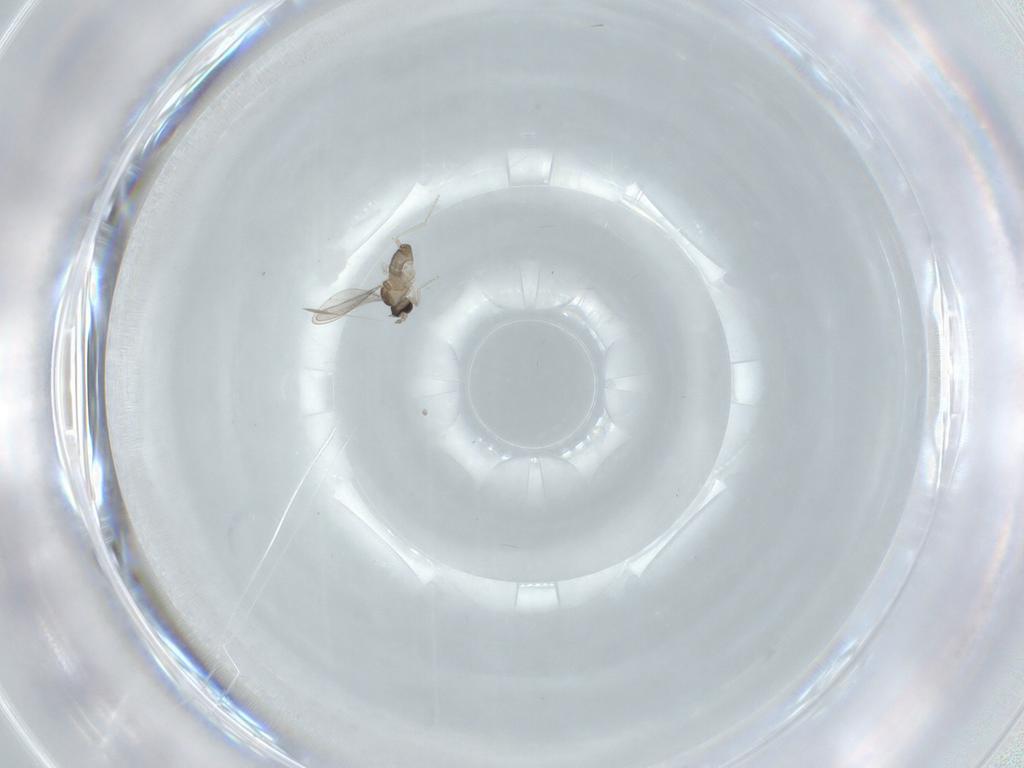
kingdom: Animalia
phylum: Arthropoda
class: Insecta
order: Diptera
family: Cecidomyiidae
